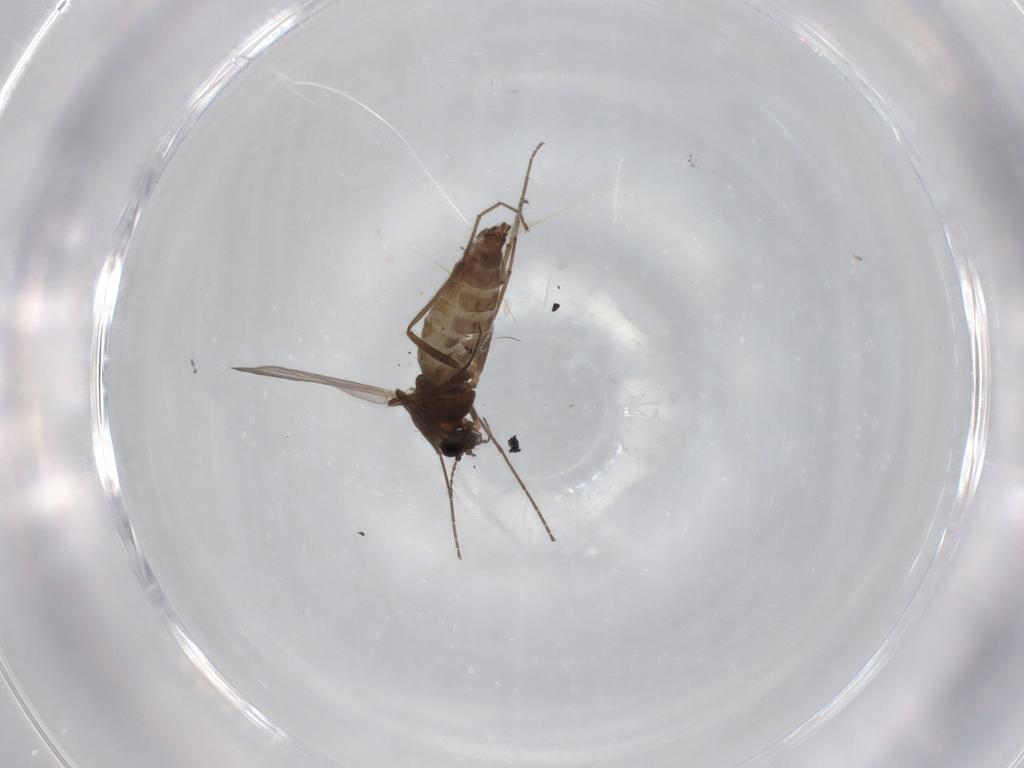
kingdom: Animalia
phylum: Arthropoda
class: Insecta
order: Diptera
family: Chironomidae
